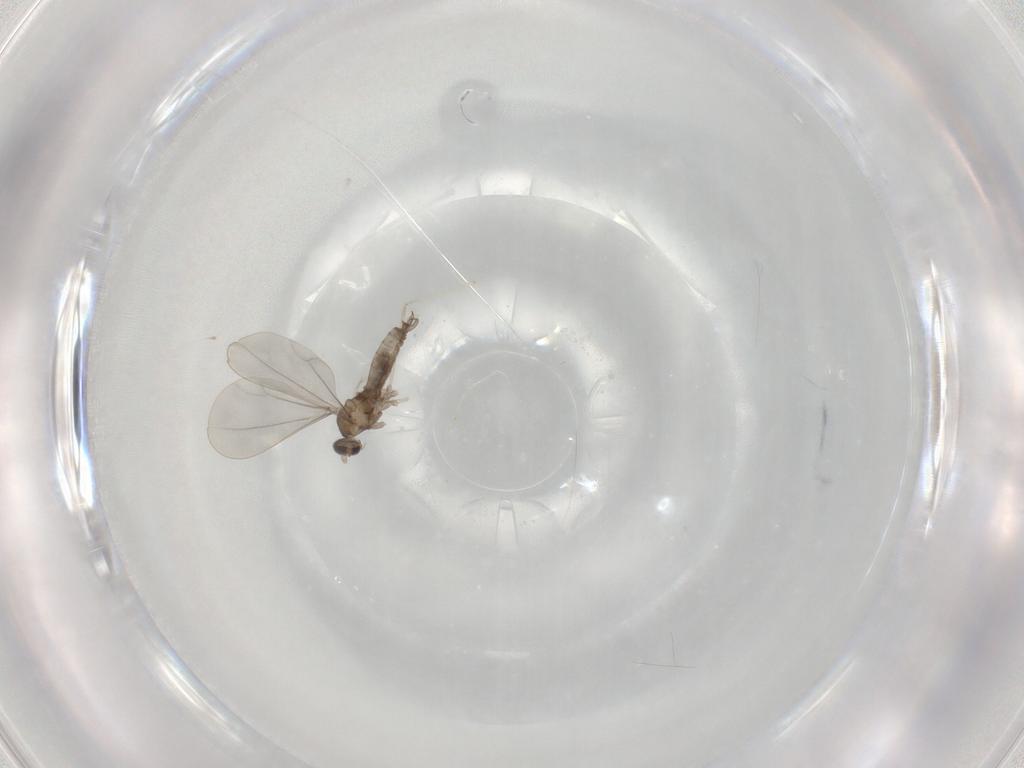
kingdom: Animalia
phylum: Arthropoda
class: Insecta
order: Diptera
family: Cecidomyiidae
